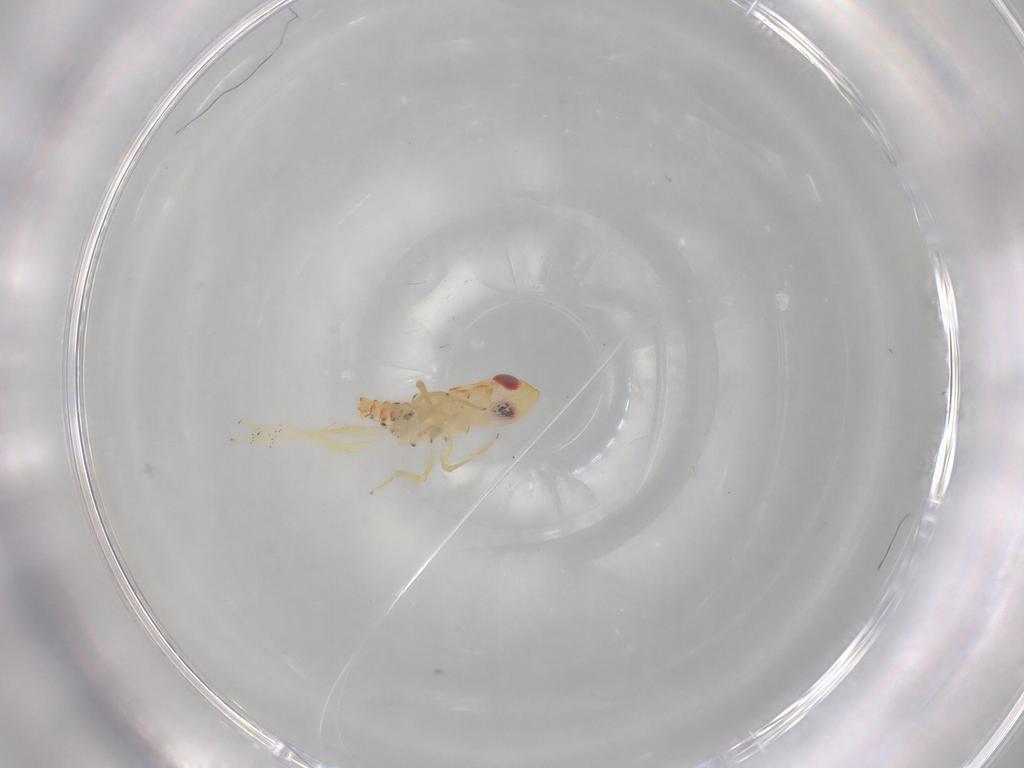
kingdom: Animalia
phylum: Arthropoda
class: Insecta
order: Hemiptera
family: Tropiduchidae
